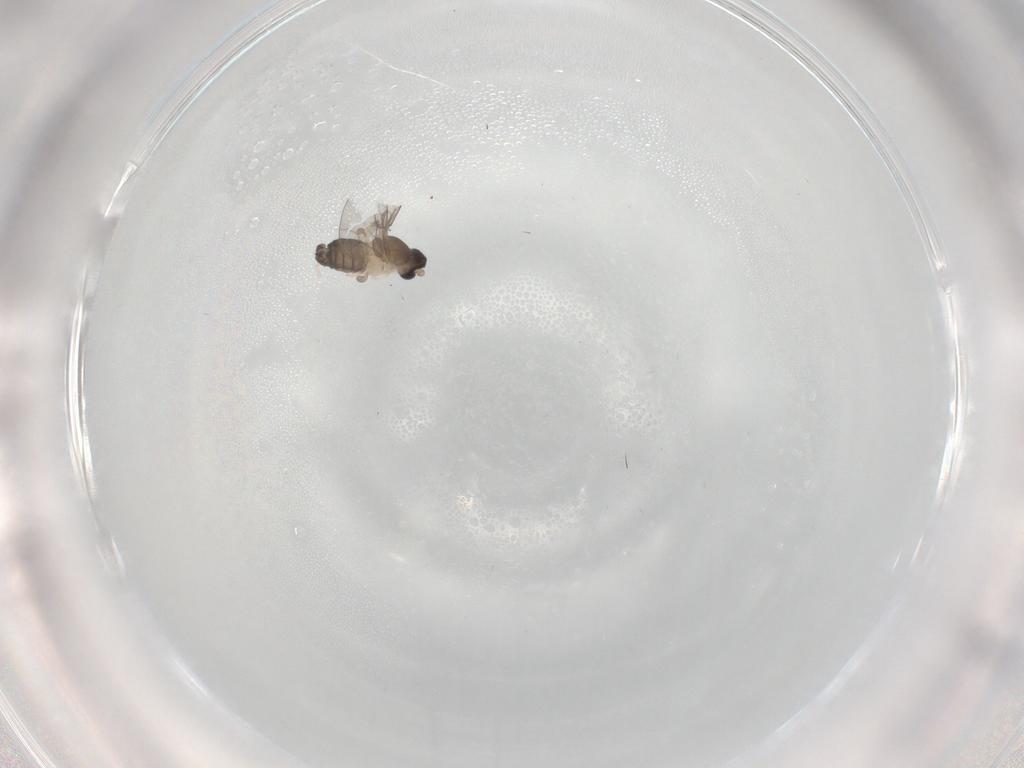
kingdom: Animalia
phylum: Arthropoda
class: Insecta
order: Diptera
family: Cecidomyiidae
